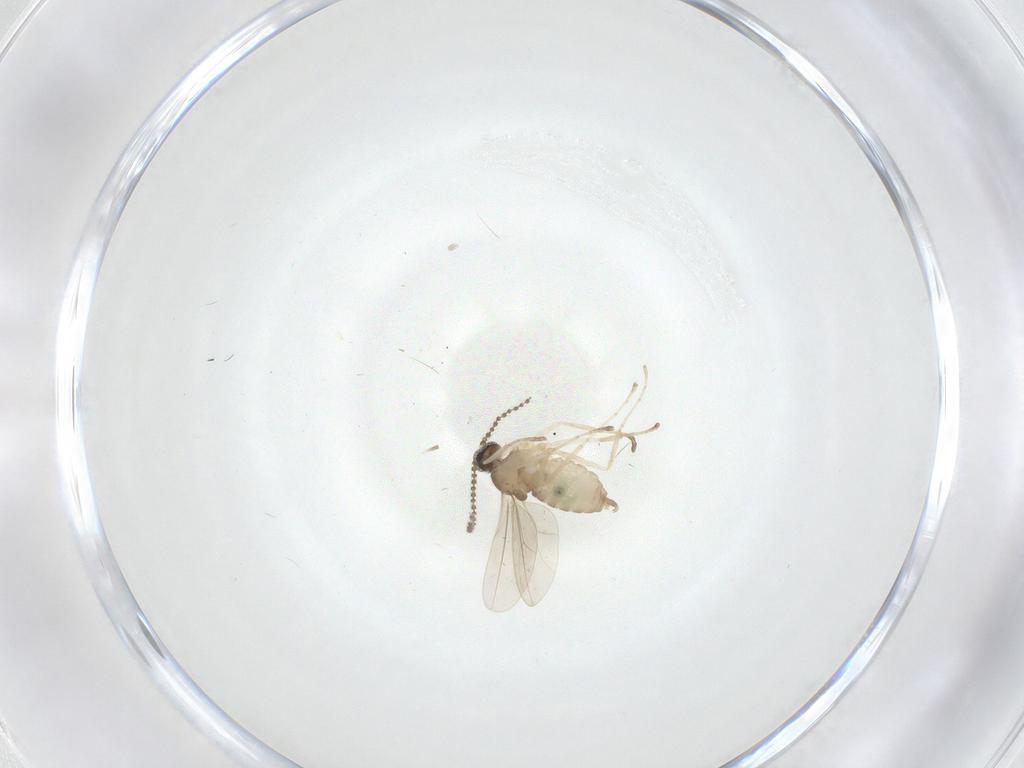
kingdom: Animalia
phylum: Arthropoda
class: Insecta
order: Diptera
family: Cecidomyiidae
